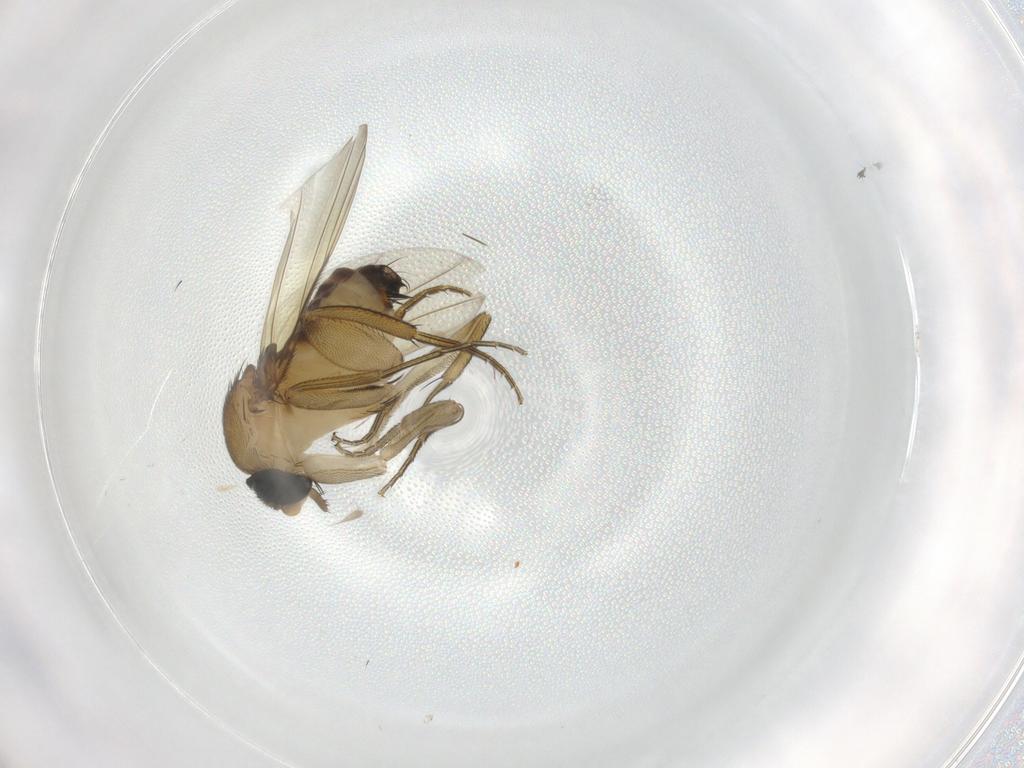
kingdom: Animalia
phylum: Arthropoda
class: Insecta
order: Diptera
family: Phoridae
